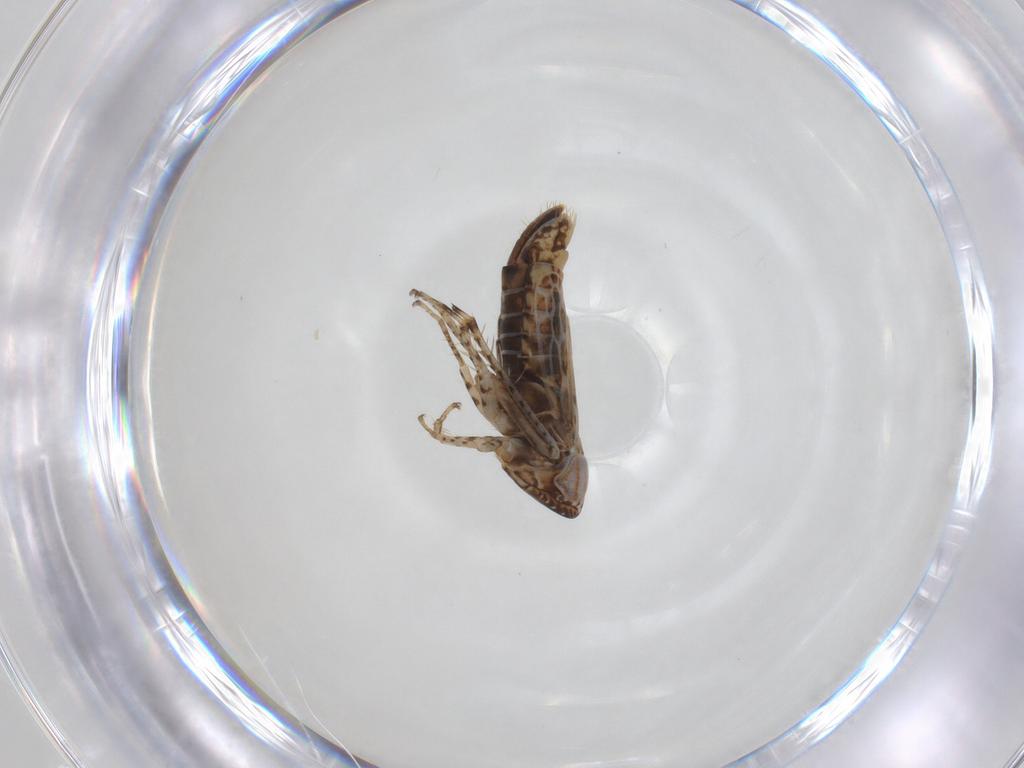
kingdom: Animalia
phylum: Arthropoda
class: Insecta
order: Hemiptera
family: Cicadellidae
